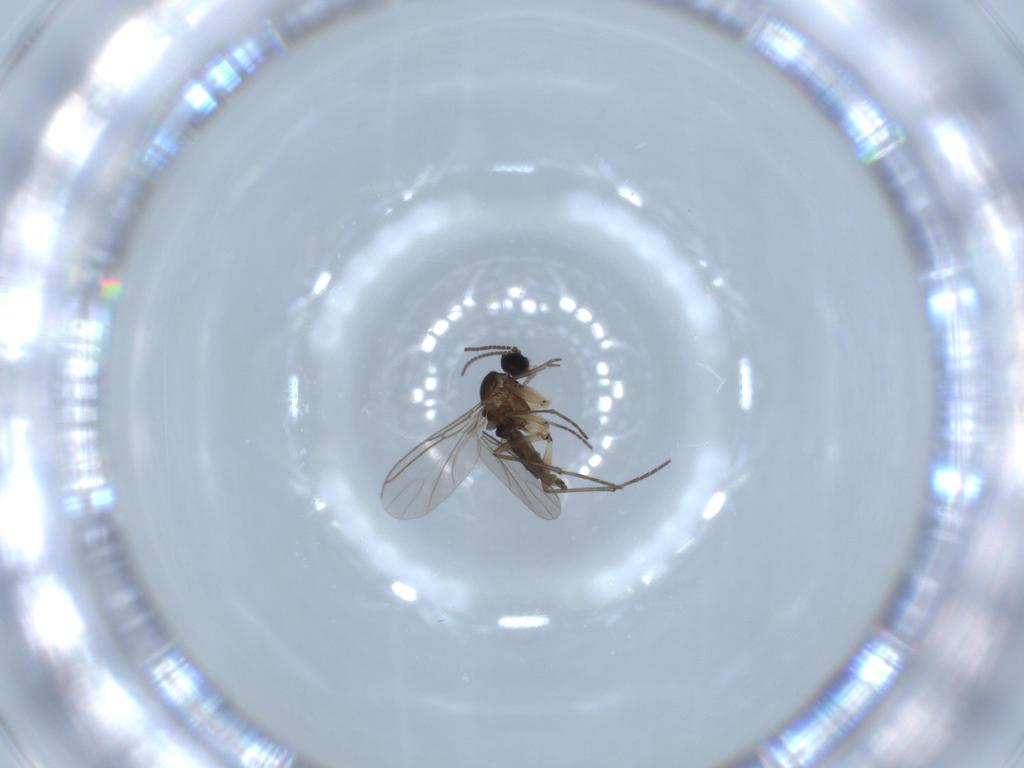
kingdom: Animalia
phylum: Arthropoda
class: Insecta
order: Diptera
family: Sciaridae
